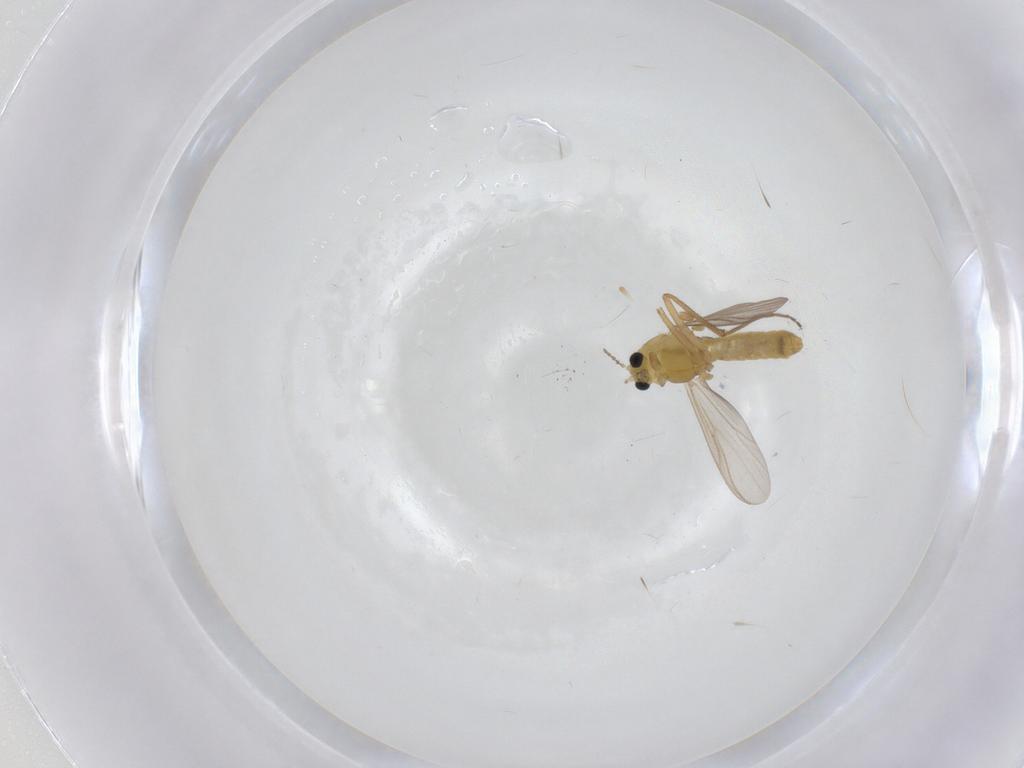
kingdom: Animalia
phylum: Arthropoda
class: Insecta
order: Diptera
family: Chironomidae
